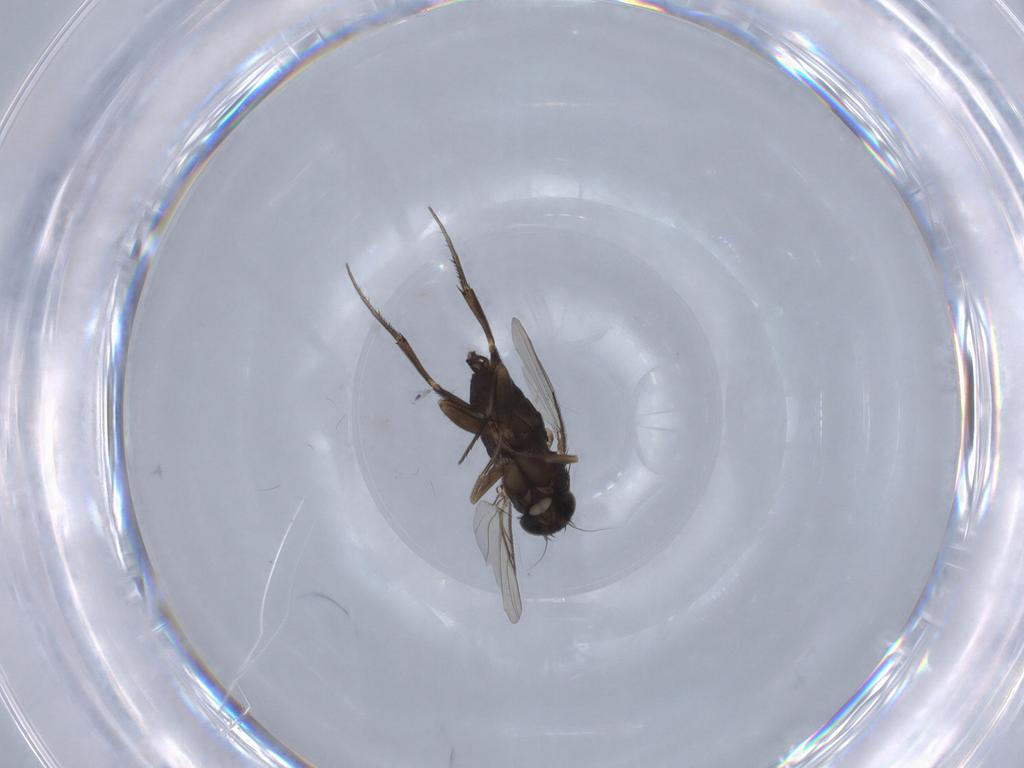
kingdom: Animalia
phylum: Arthropoda
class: Insecta
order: Diptera
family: Phoridae
